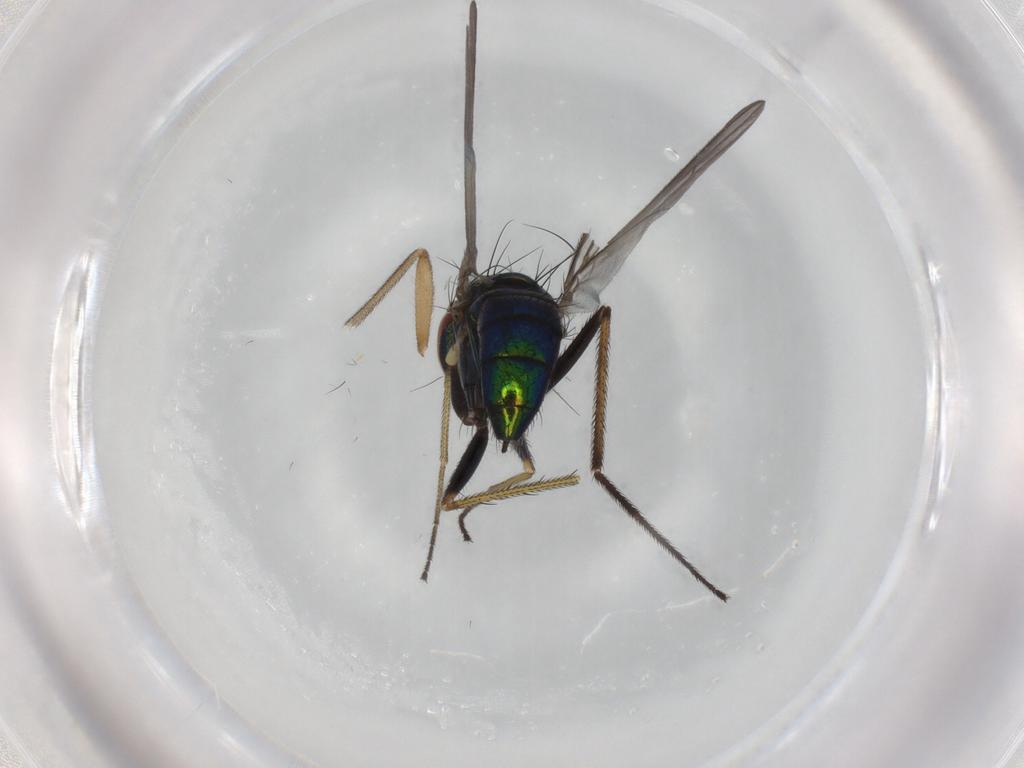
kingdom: Animalia
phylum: Arthropoda
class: Insecta
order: Diptera
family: Dolichopodidae
